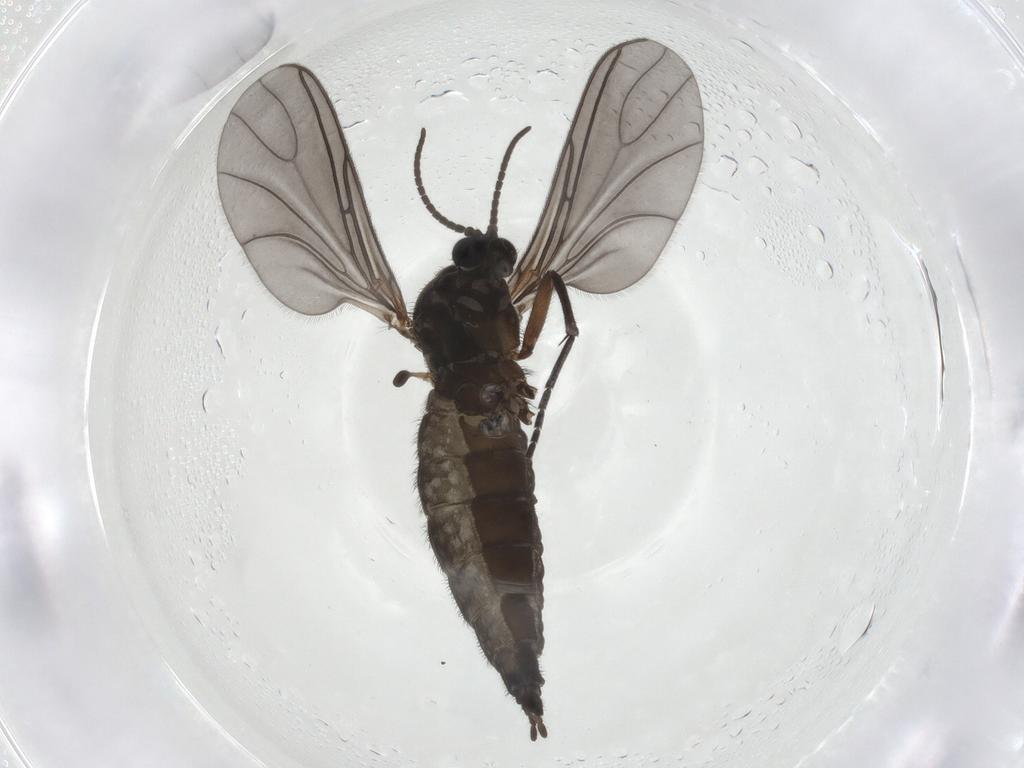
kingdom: Animalia
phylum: Arthropoda
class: Insecta
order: Diptera
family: Sciaridae
